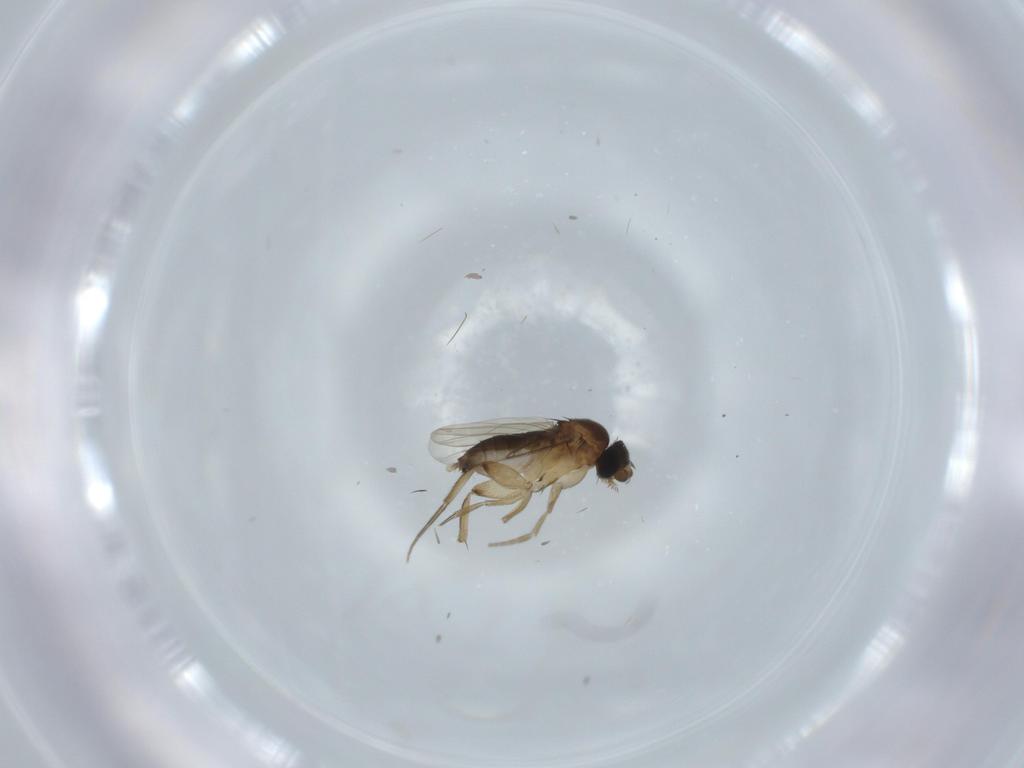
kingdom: Animalia
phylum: Arthropoda
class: Insecta
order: Diptera
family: Phoridae
